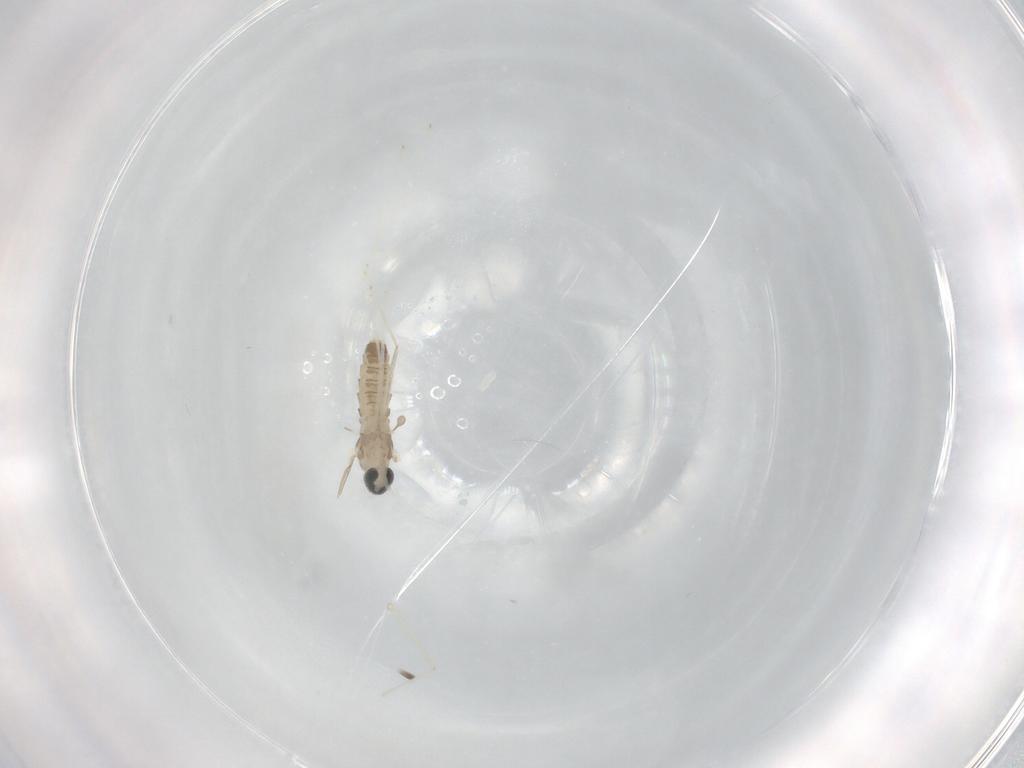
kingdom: Animalia
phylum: Arthropoda
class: Insecta
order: Diptera
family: Cecidomyiidae
